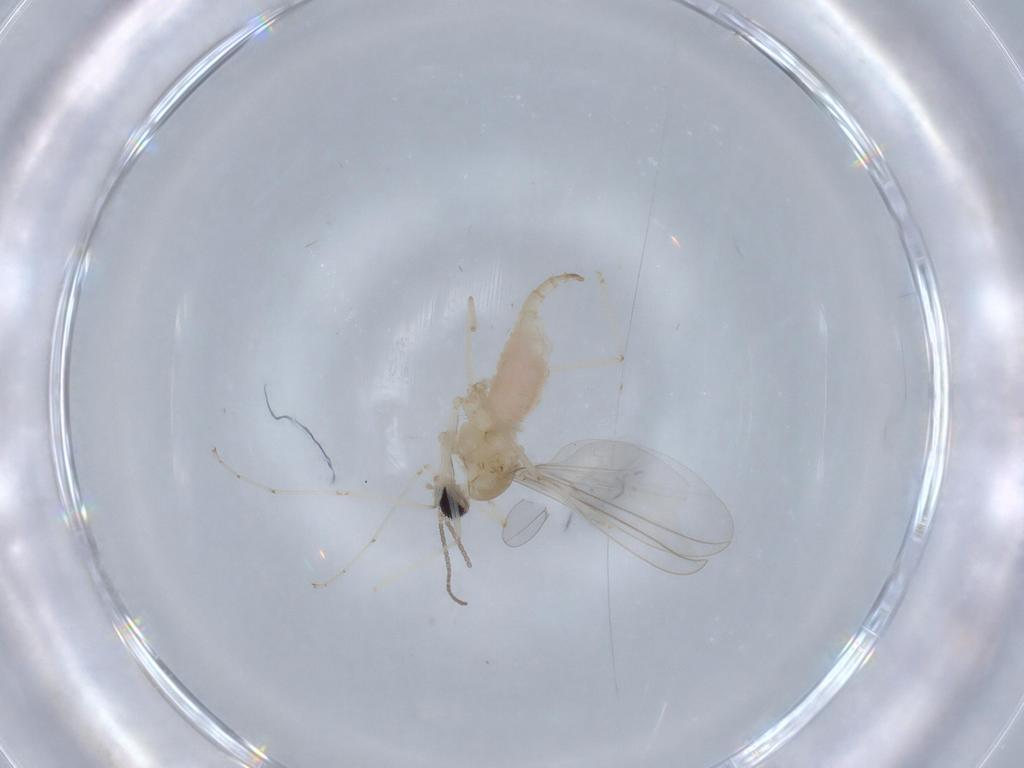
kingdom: Animalia
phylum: Arthropoda
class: Insecta
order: Diptera
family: Cecidomyiidae
